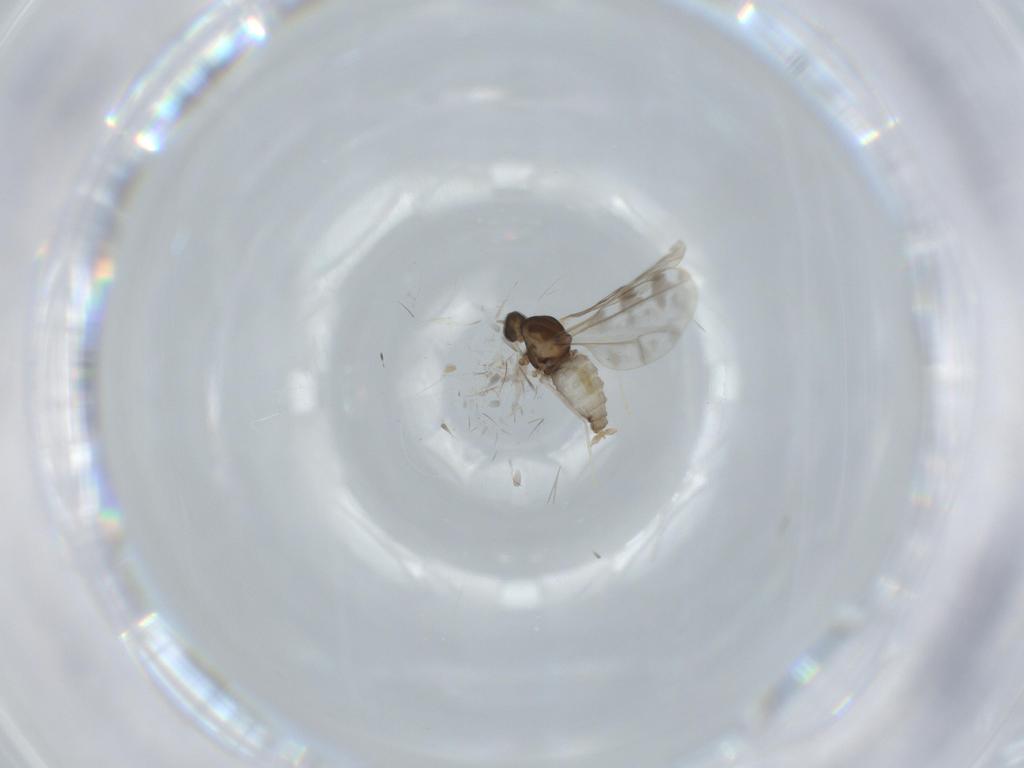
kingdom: Animalia
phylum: Arthropoda
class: Insecta
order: Diptera
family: Cecidomyiidae
